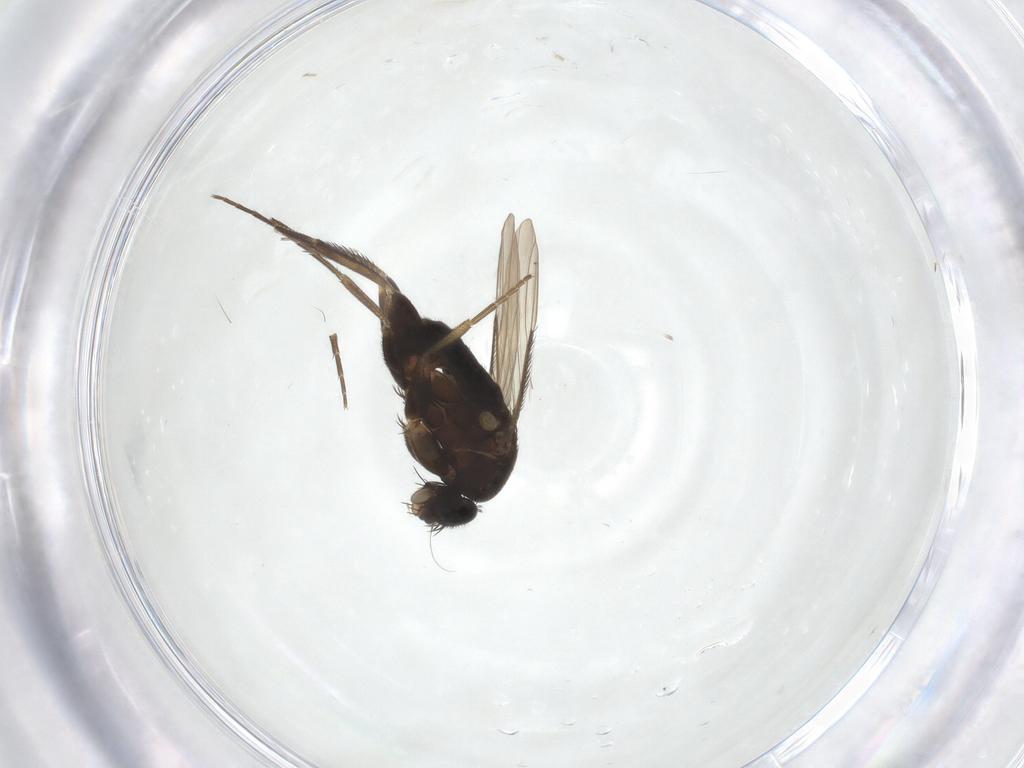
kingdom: Animalia
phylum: Arthropoda
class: Insecta
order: Diptera
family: Phoridae
